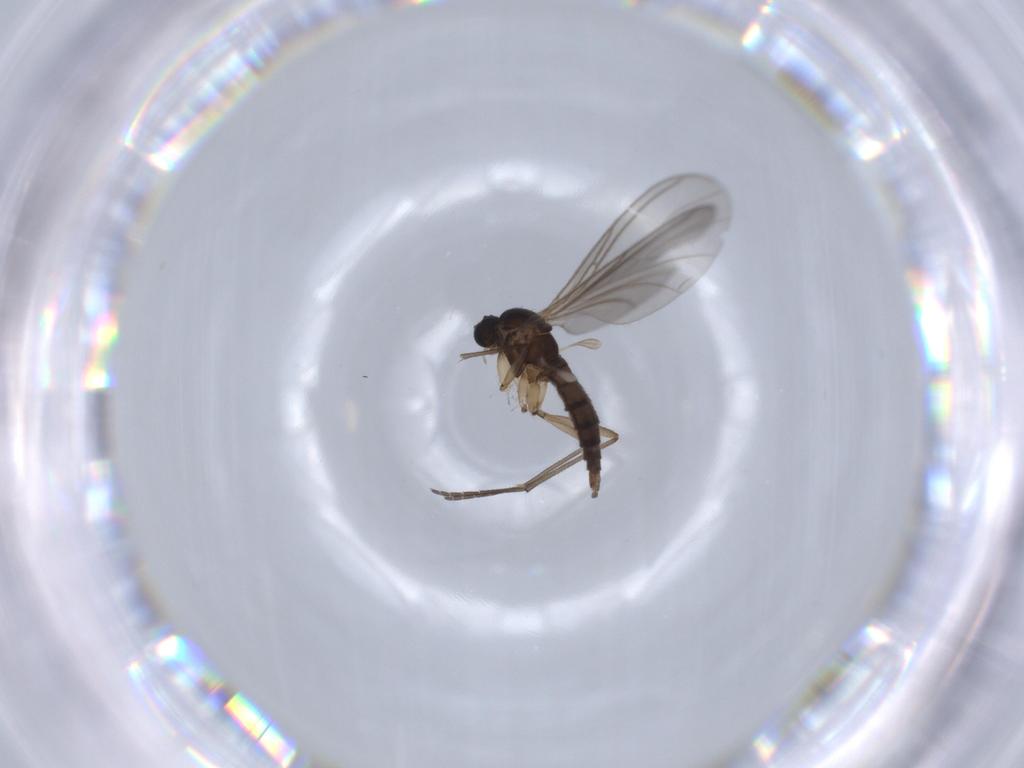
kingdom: Animalia
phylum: Arthropoda
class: Insecta
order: Diptera
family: Sciaridae
